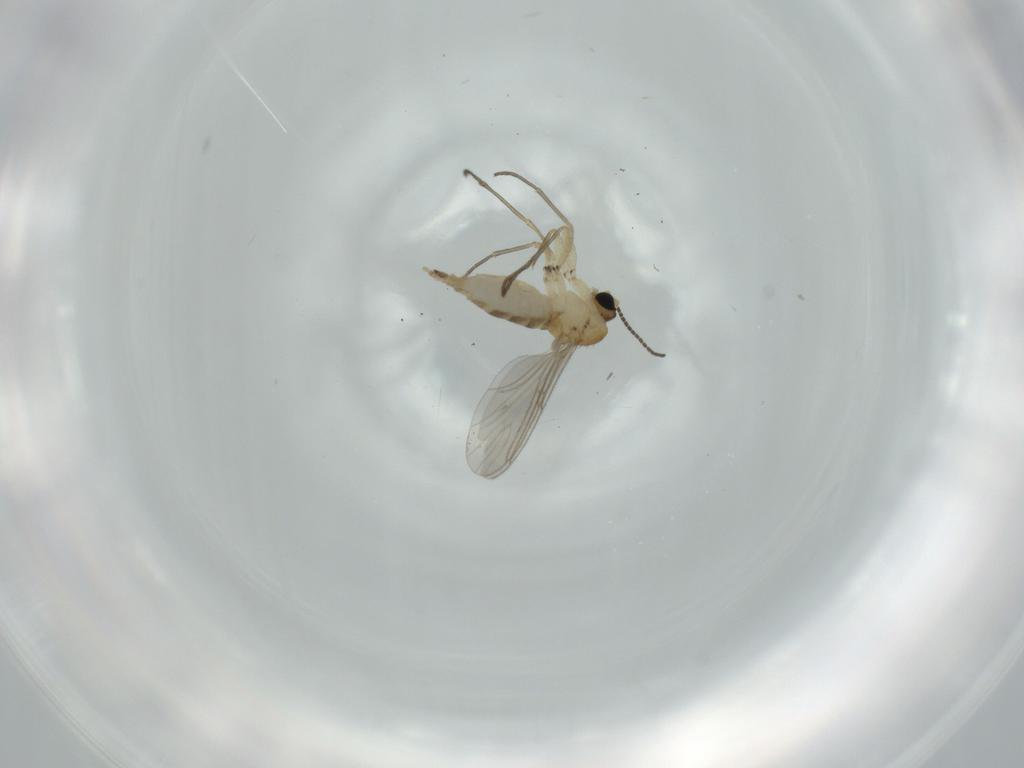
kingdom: Animalia
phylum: Arthropoda
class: Insecta
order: Diptera
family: Sciaridae
